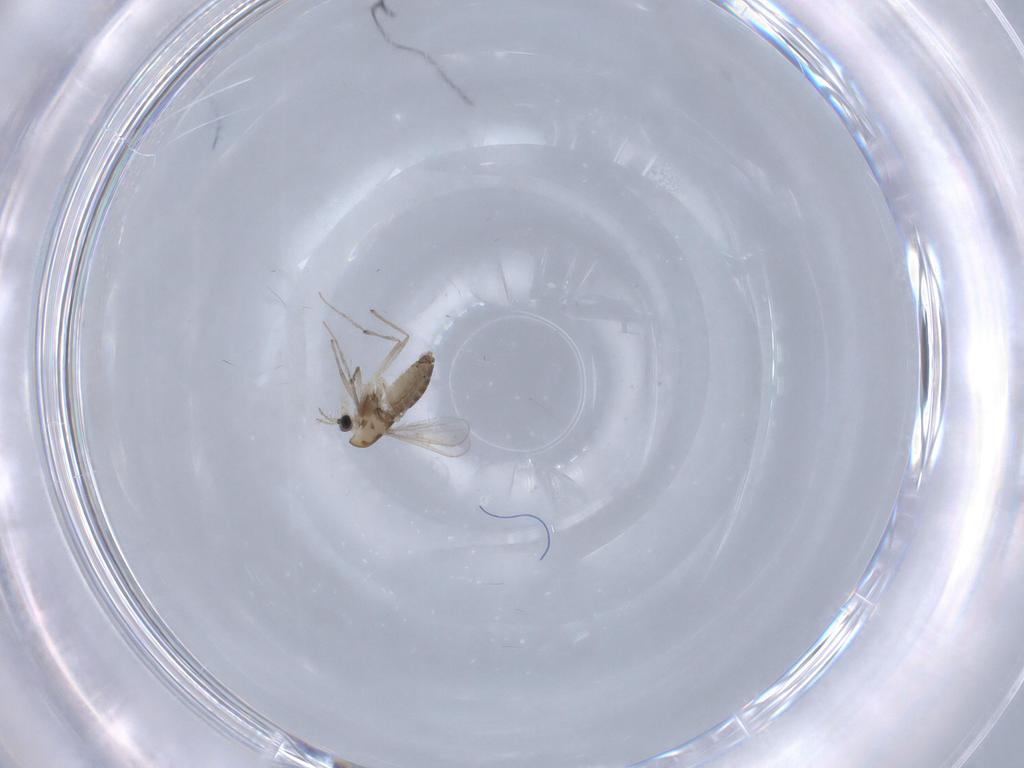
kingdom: Animalia
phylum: Arthropoda
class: Insecta
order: Diptera
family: Chironomidae
